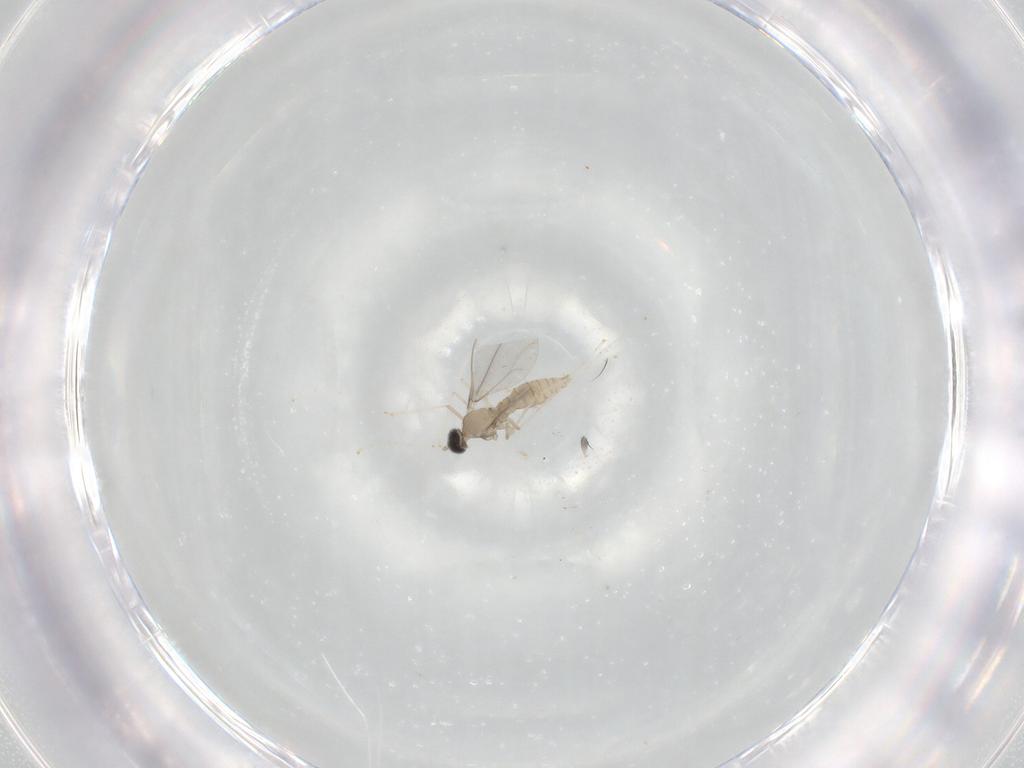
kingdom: Animalia
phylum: Arthropoda
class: Insecta
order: Diptera
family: Cecidomyiidae
